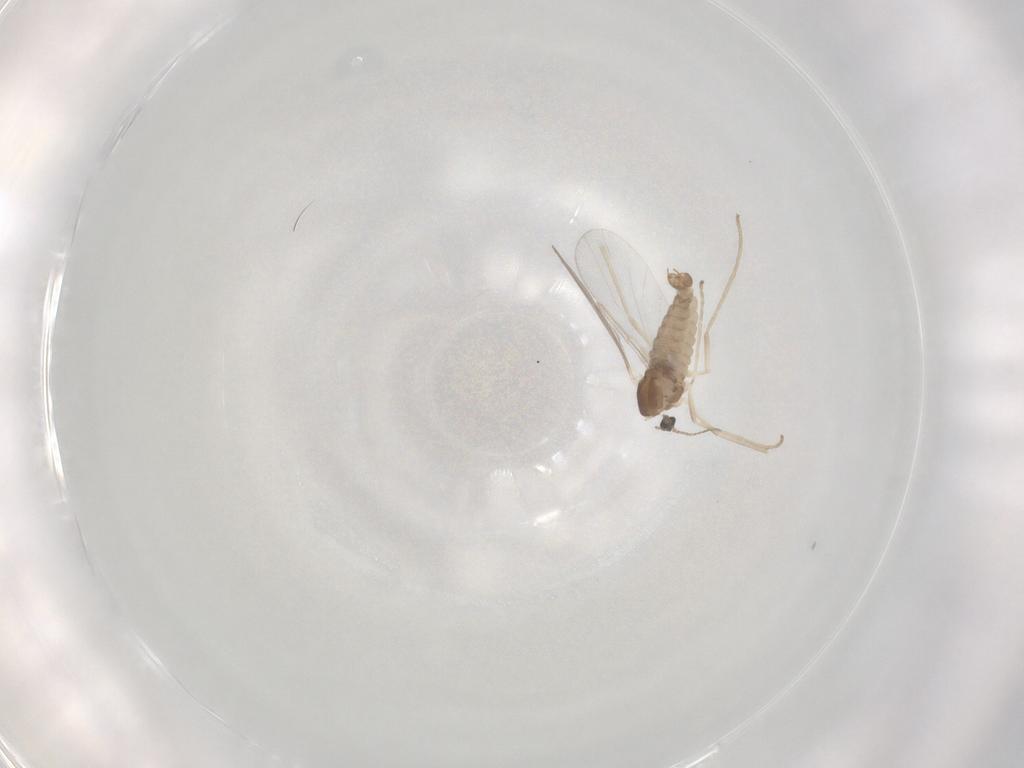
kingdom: Animalia
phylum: Arthropoda
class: Insecta
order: Diptera
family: Cecidomyiidae
